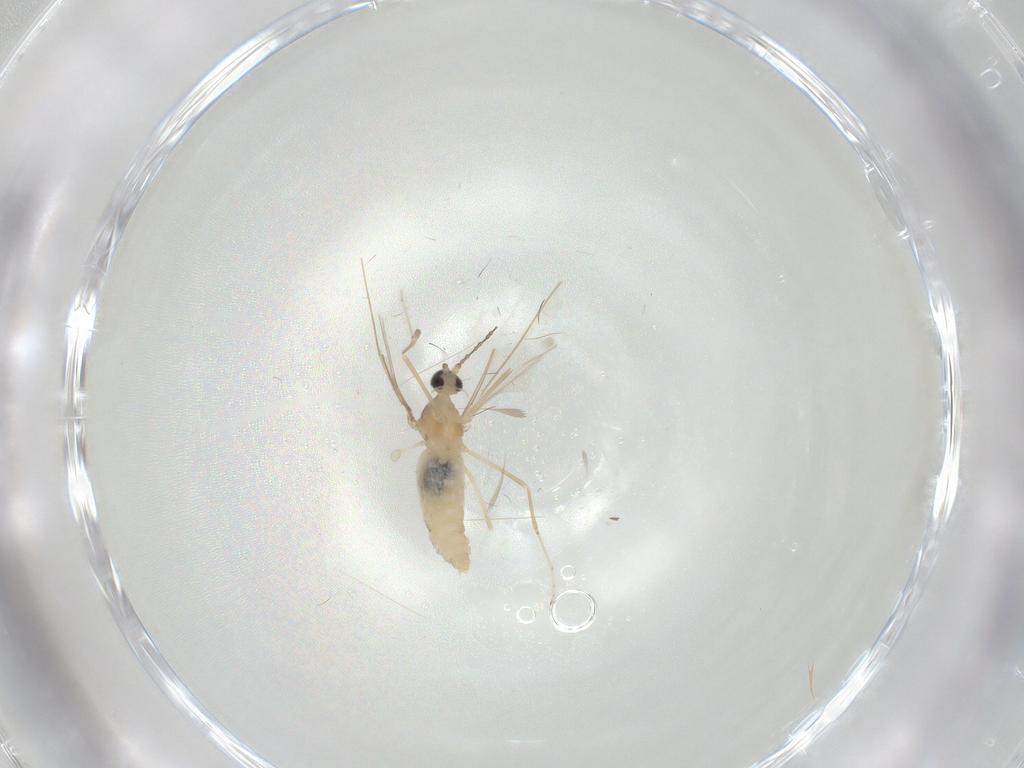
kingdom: Animalia
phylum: Arthropoda
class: Insecta
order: Diptera
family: Cecidomyiidae
